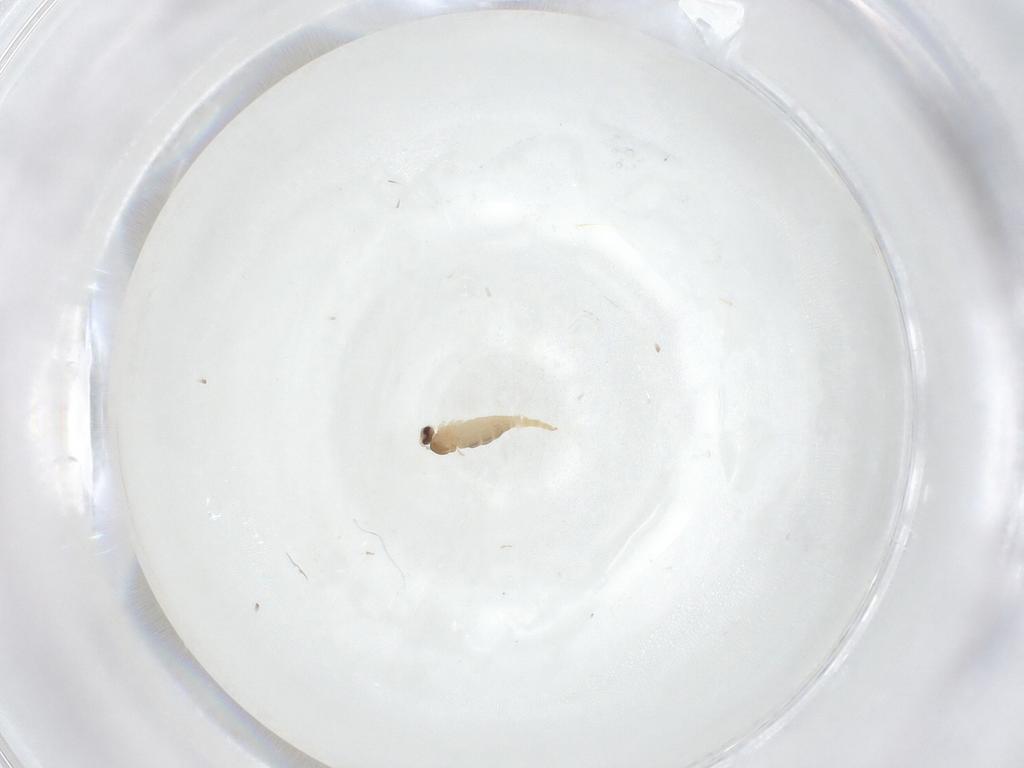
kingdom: Animalia
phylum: Arthropoda
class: Insecta
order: Diptera
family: Cecidomyiidae
